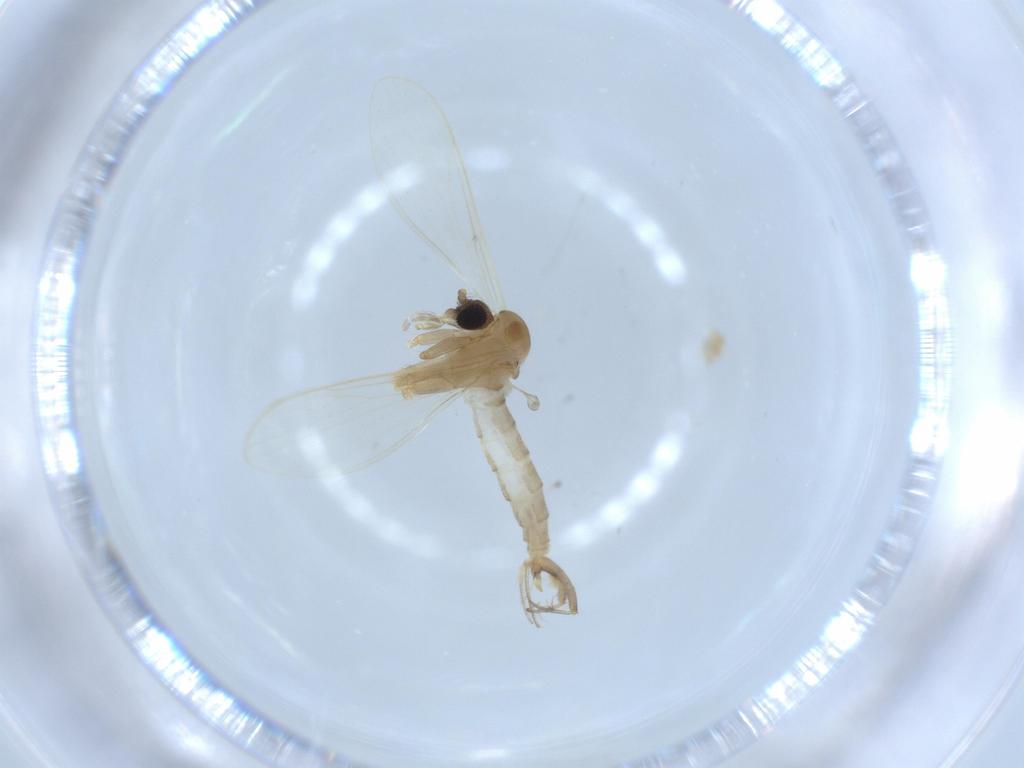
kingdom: Animalia
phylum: Arthropoda
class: Insecta
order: Diptera
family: Psychodidae
